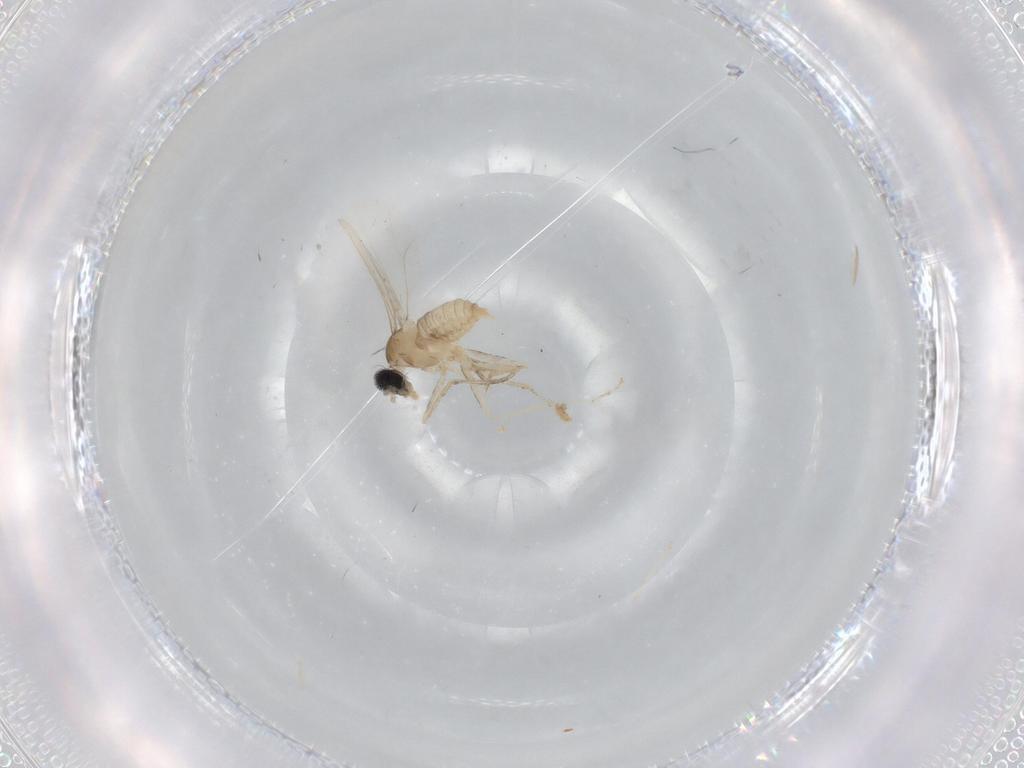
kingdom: Animalia
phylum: Arthropoda
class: Insecta
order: Diptera
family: Cecidomyiidae
